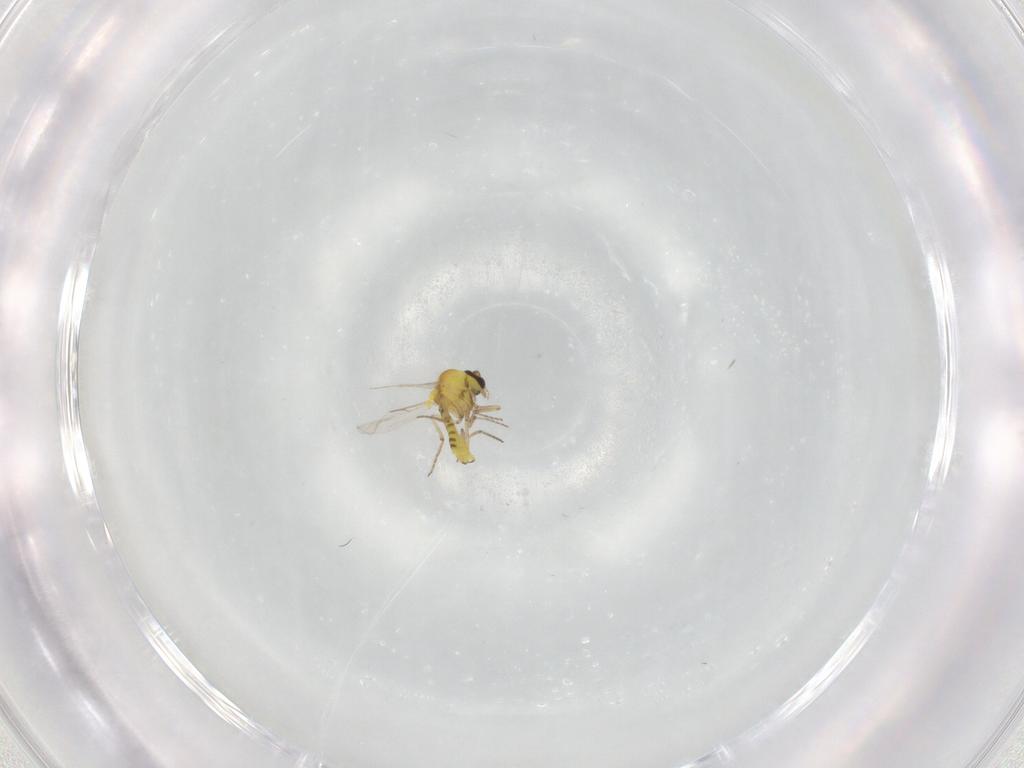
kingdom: Animalia
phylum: Arthropoda
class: Insecta
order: Diptera
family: Ceratopogonidae
